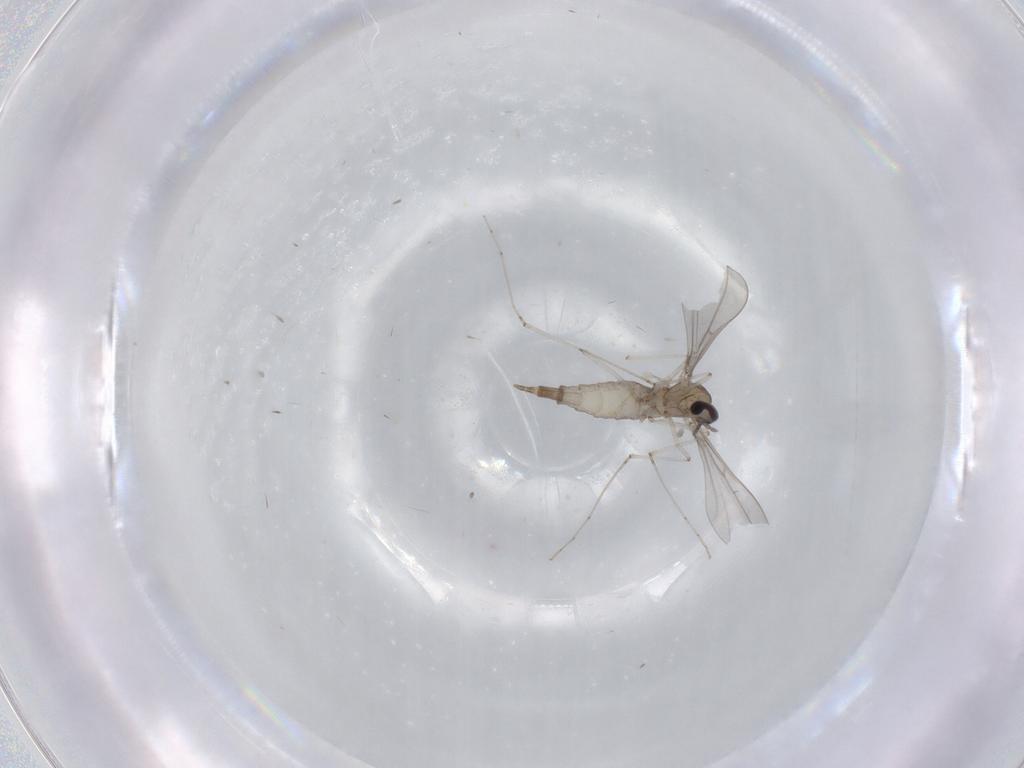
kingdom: Animalia
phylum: Arthropoda
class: Insecta
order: Diptera
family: Cecidomyiidae
